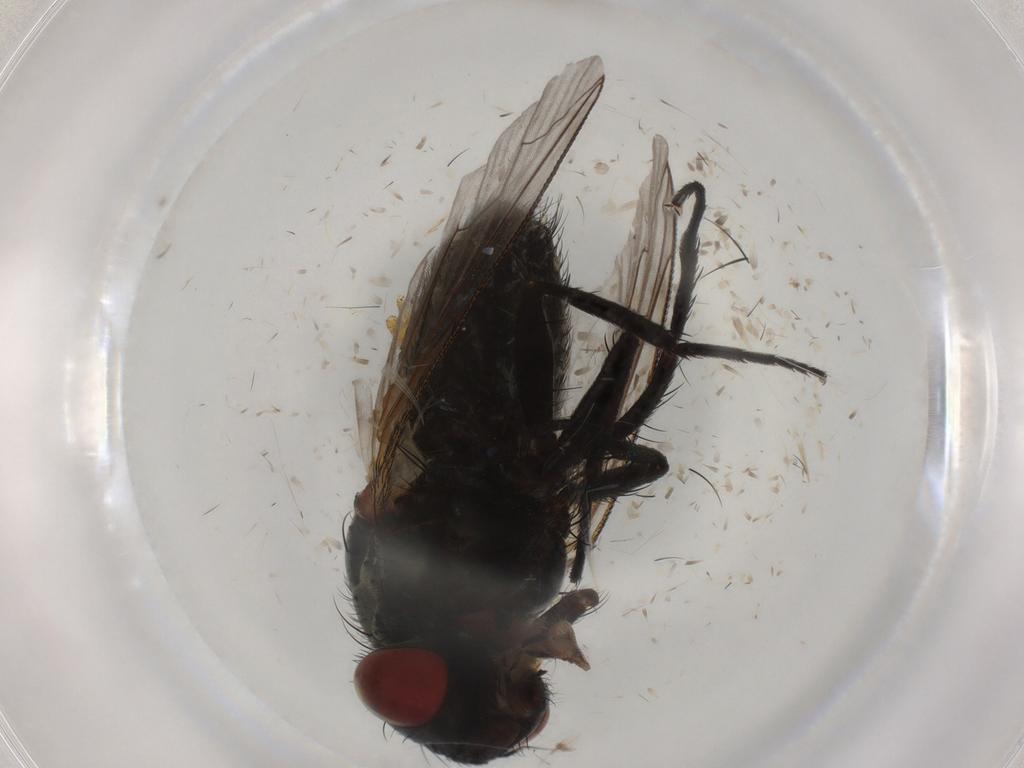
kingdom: Animalia
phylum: Arthropoda
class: Insecta
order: Diptera
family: Sarcophagidae
